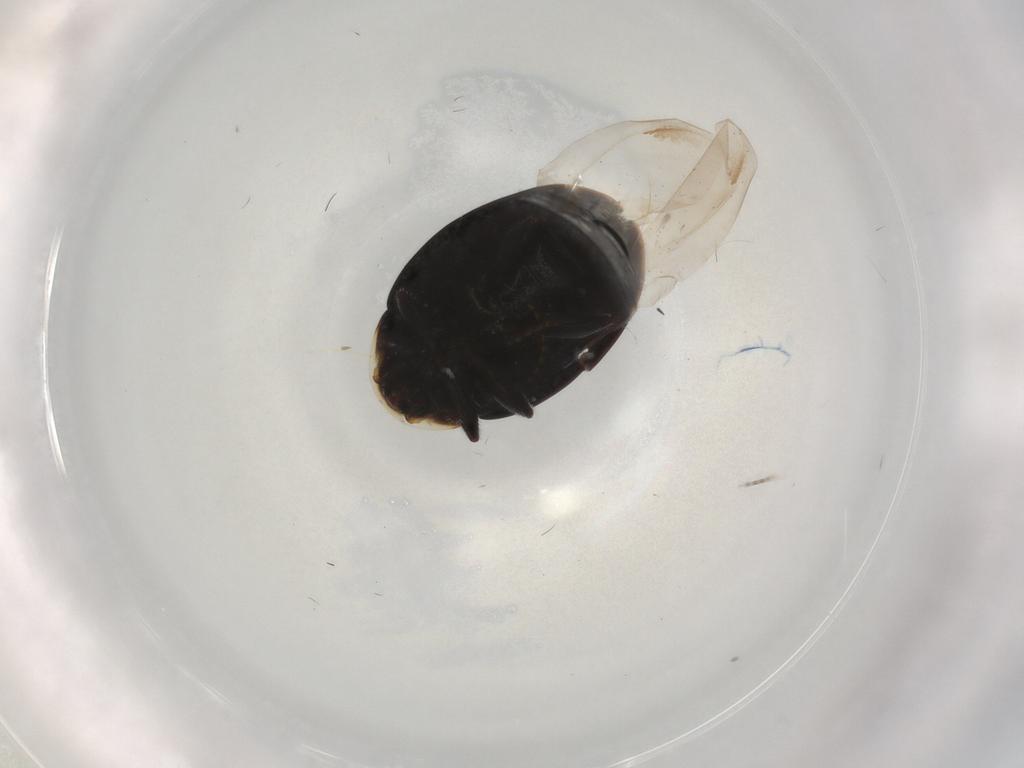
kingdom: Animalia
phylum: Arthropoda
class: Insecta
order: Coleoptera
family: Coccinellidae
